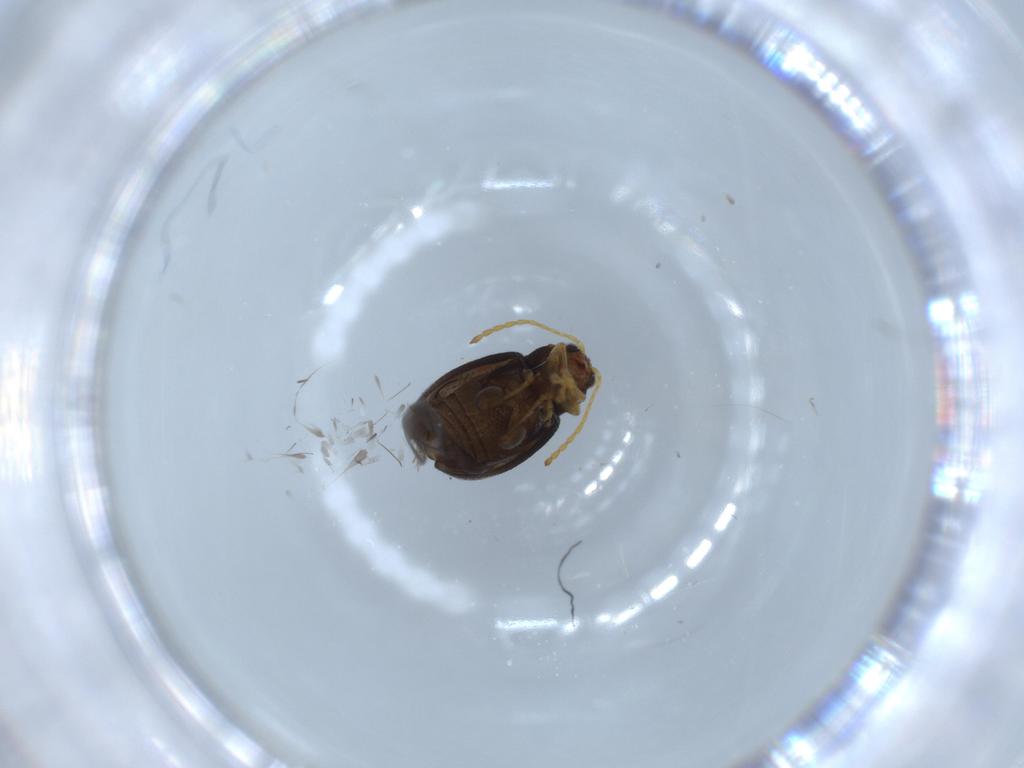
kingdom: Animalia
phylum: Arthropoda
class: Insecta
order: Coleoptera
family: Chrysomelidae
